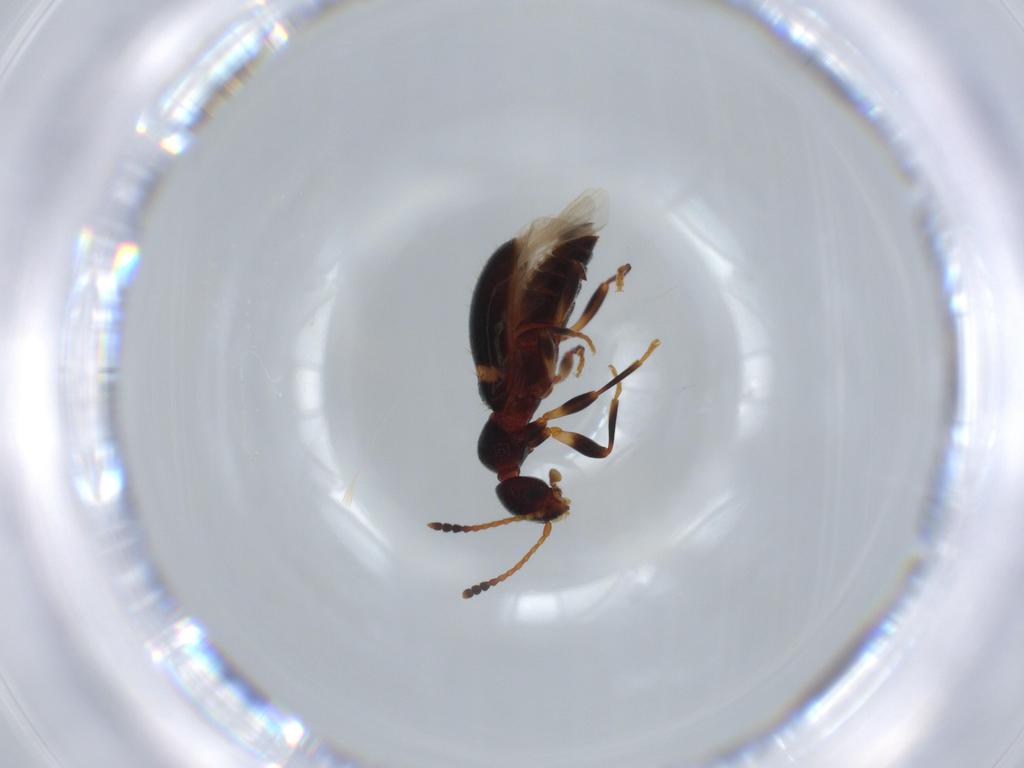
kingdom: Animalia
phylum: Arthropoda
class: Insecta
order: Coleoptera
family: Anthicidae
